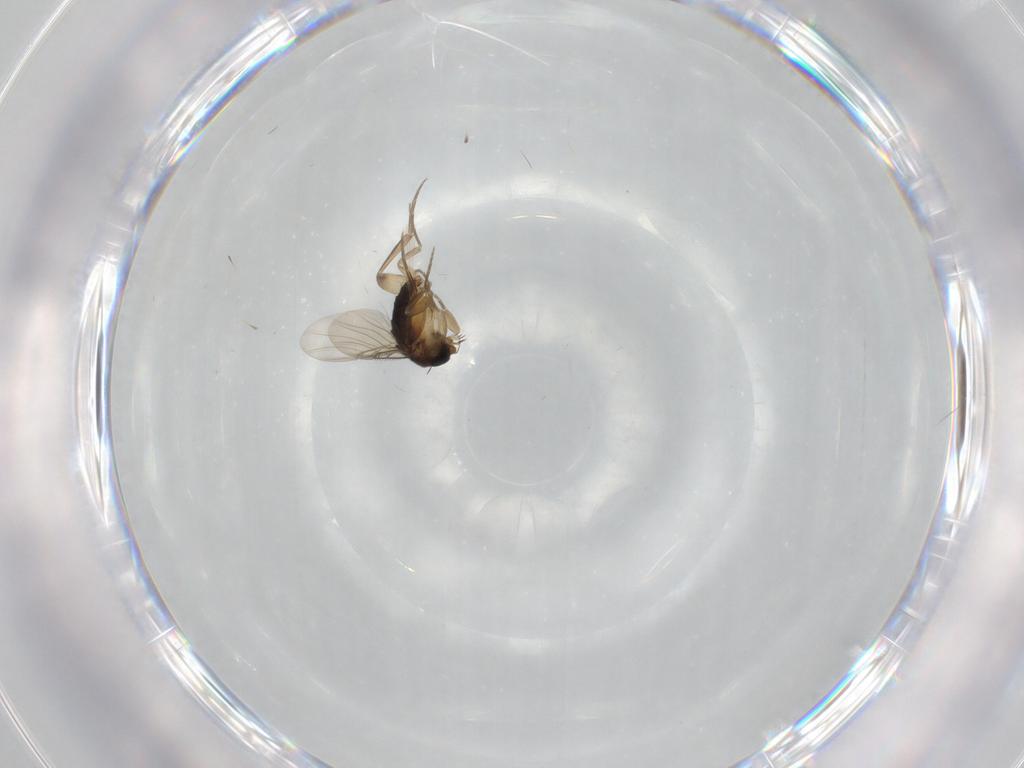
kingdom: Animalia
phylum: Arthropoda
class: Insecta
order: Diptera
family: Phoridae
